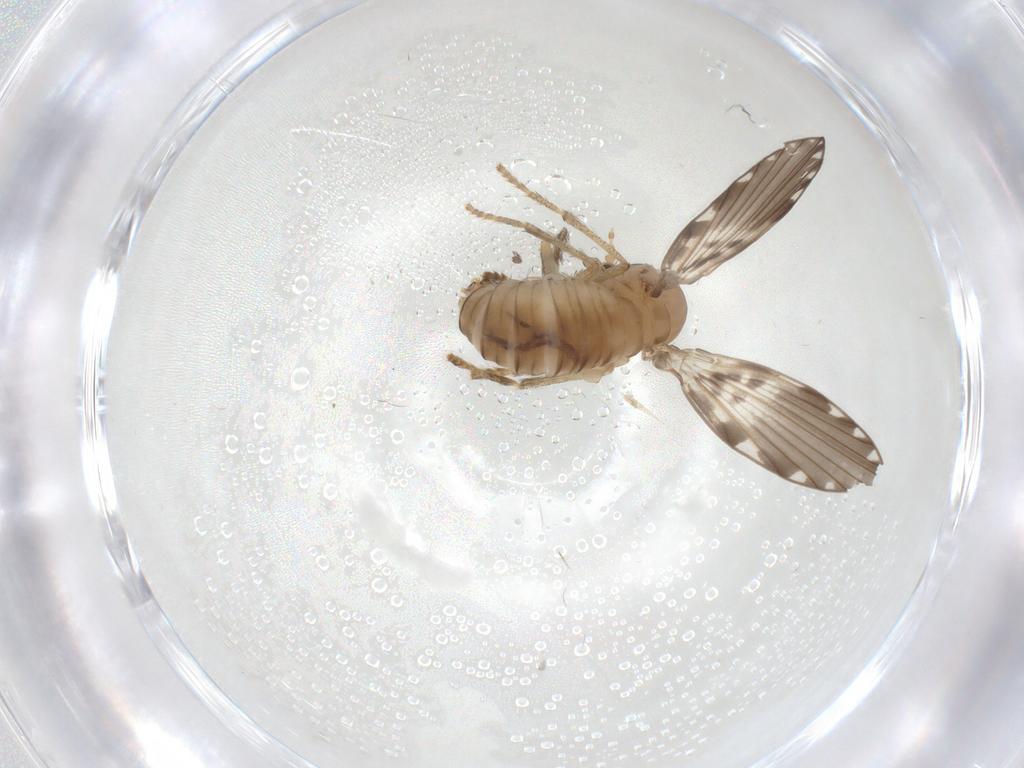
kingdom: Animalia
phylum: Arthropoda
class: Insecta
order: Diptera
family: Psychodidae
